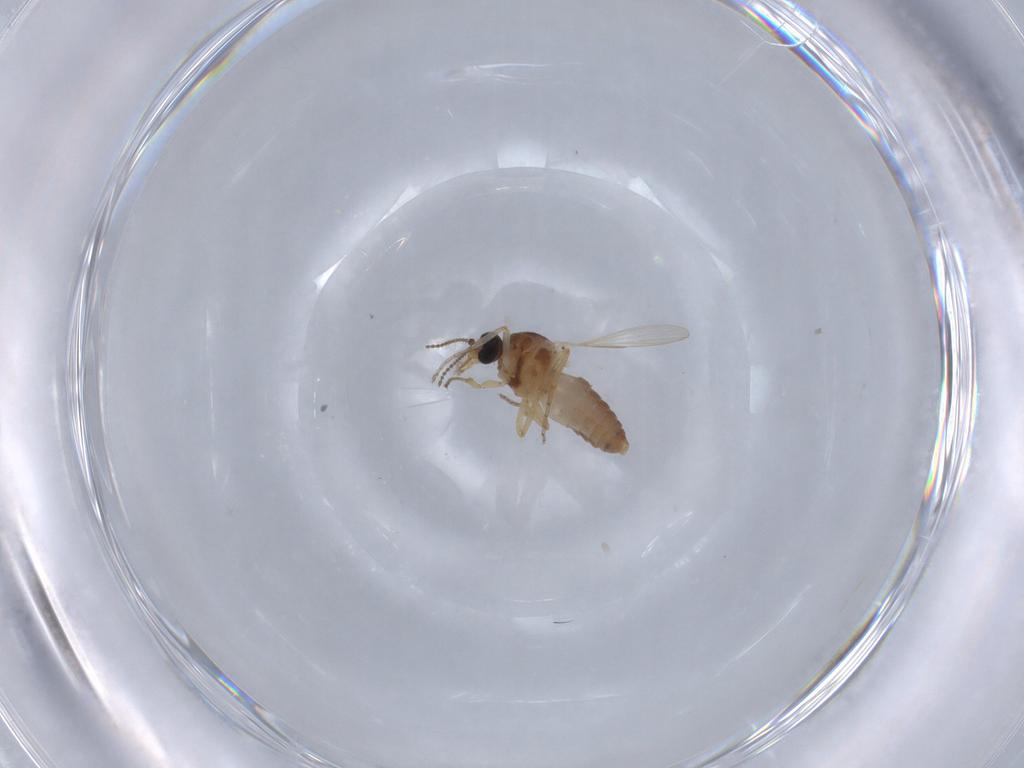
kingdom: Animalia
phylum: Arthropoda
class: Insecta
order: Diptera
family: Ceratopogonidae
